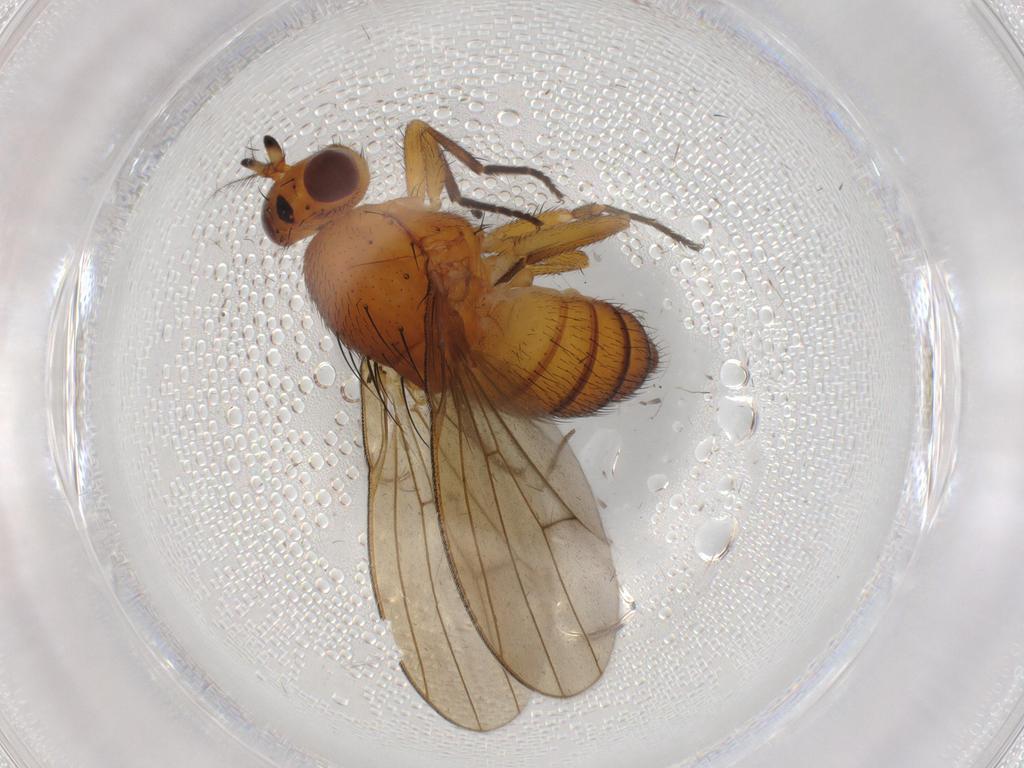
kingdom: Animalia
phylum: Arthropoda
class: Insecta
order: Diptera
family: Lauxaniidae
